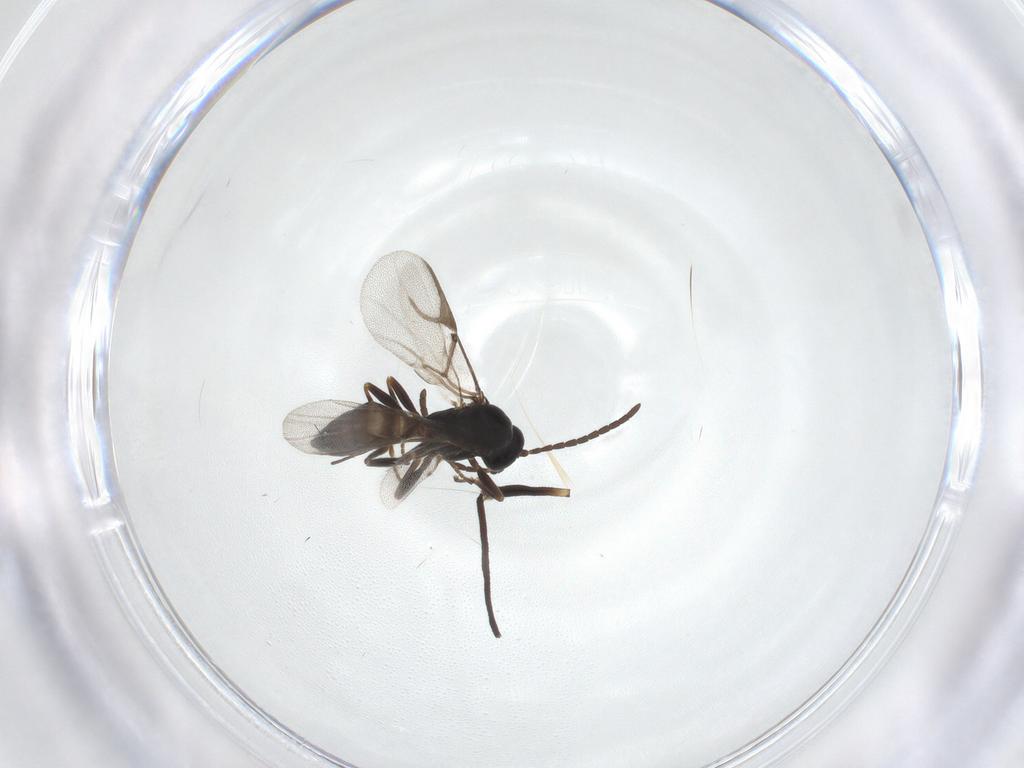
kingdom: Animalia
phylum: Arthropoda
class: Insecta
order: Hymenoptera
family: Braconidae
